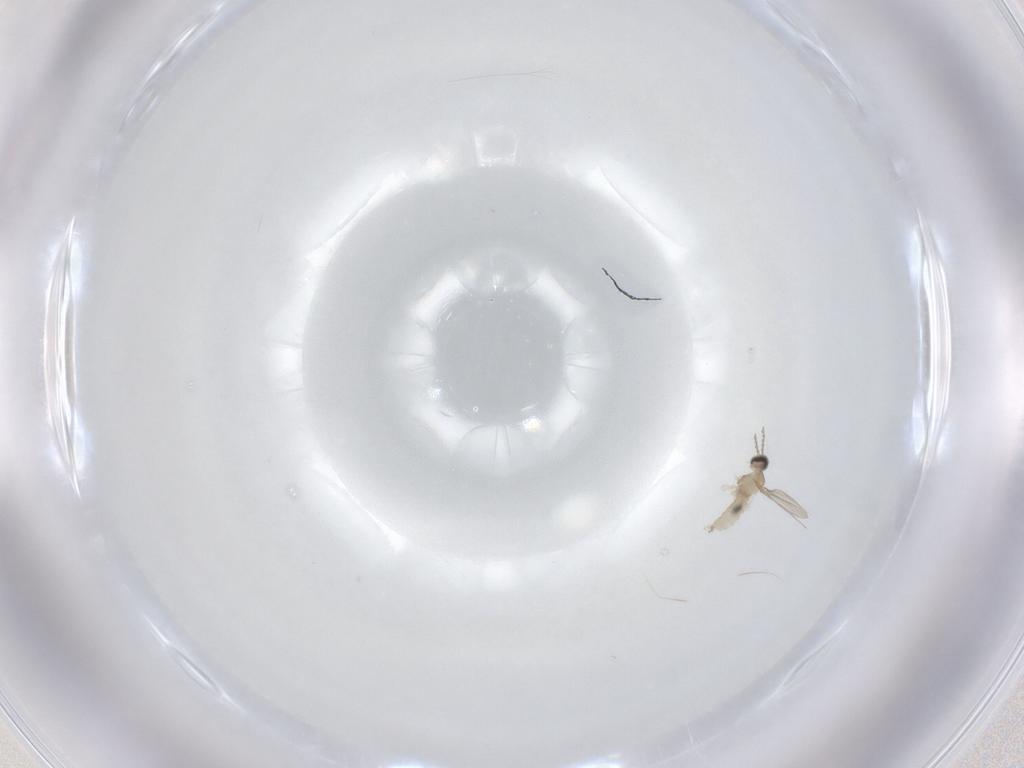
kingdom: Animalia
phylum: Arthropoda
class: Insecta
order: Diptera
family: Cecidomyiidae
